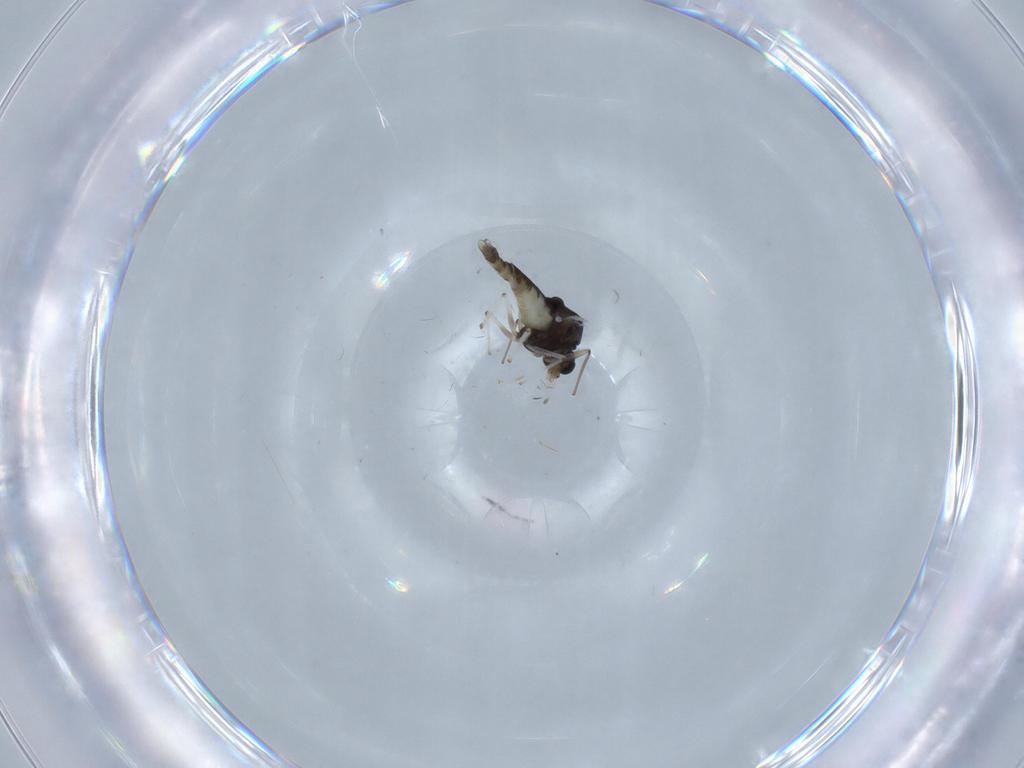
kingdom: Animalia
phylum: Arthropoda
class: Insecta
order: Diptera
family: Chironomidae
